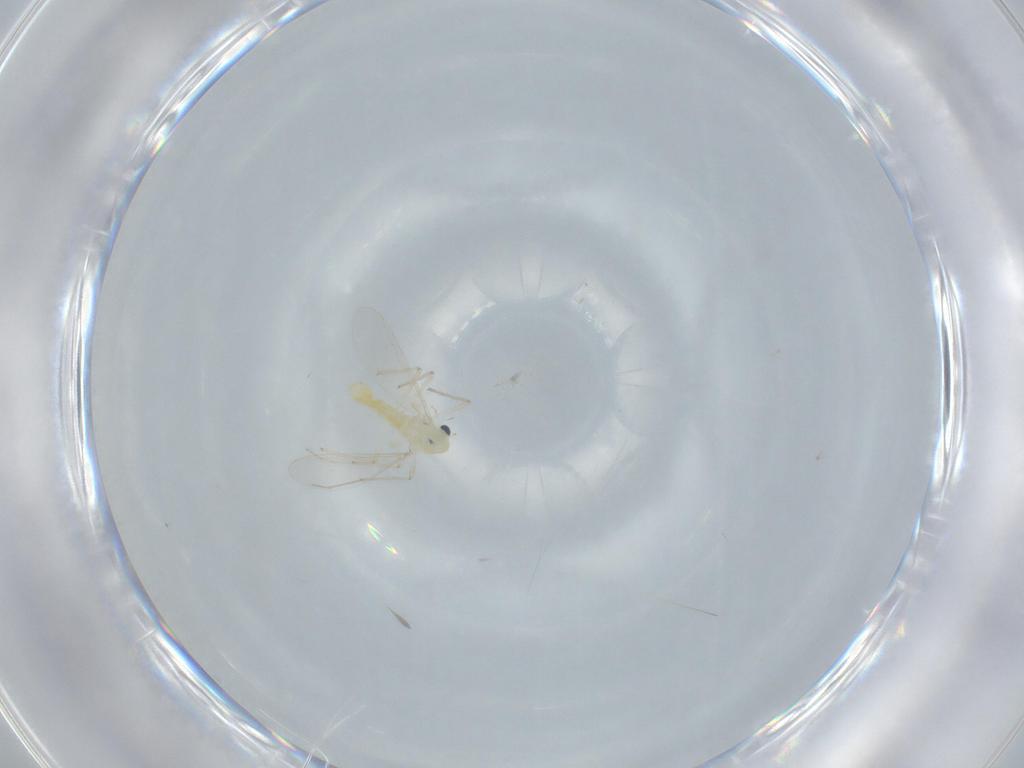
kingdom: Animalia
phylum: Arthropoda
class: Insecta
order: Diptera
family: Chironomidae
